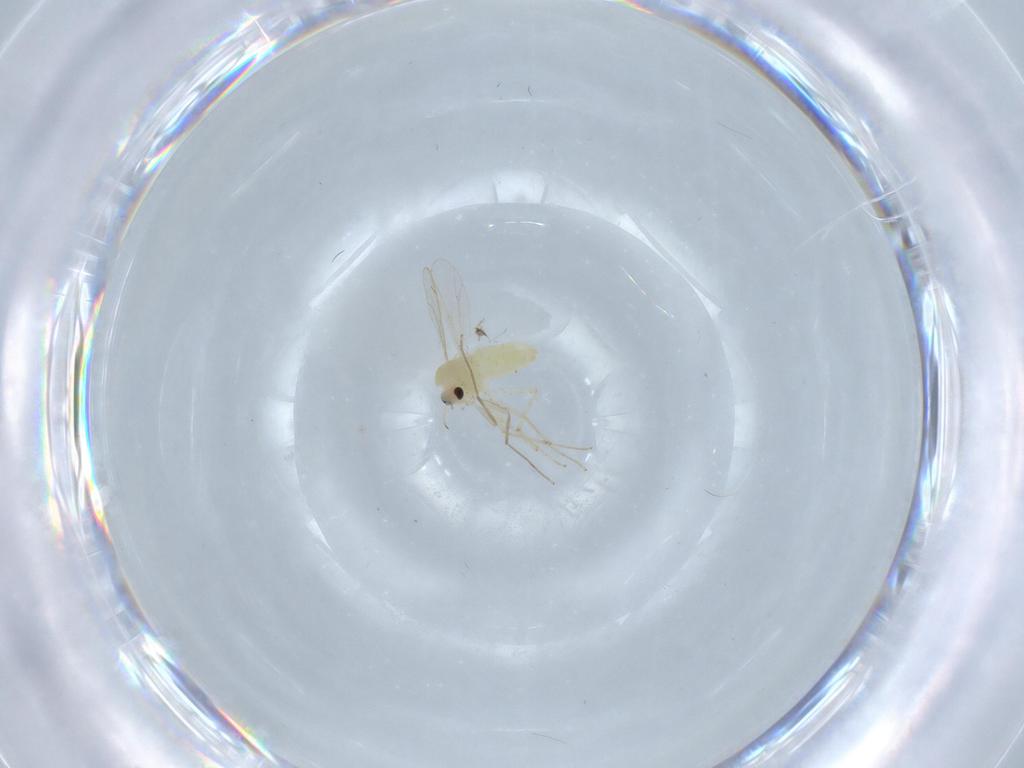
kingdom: Animalia
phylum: Arthropoda
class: Insecta
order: Diptera
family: Chironomidae
